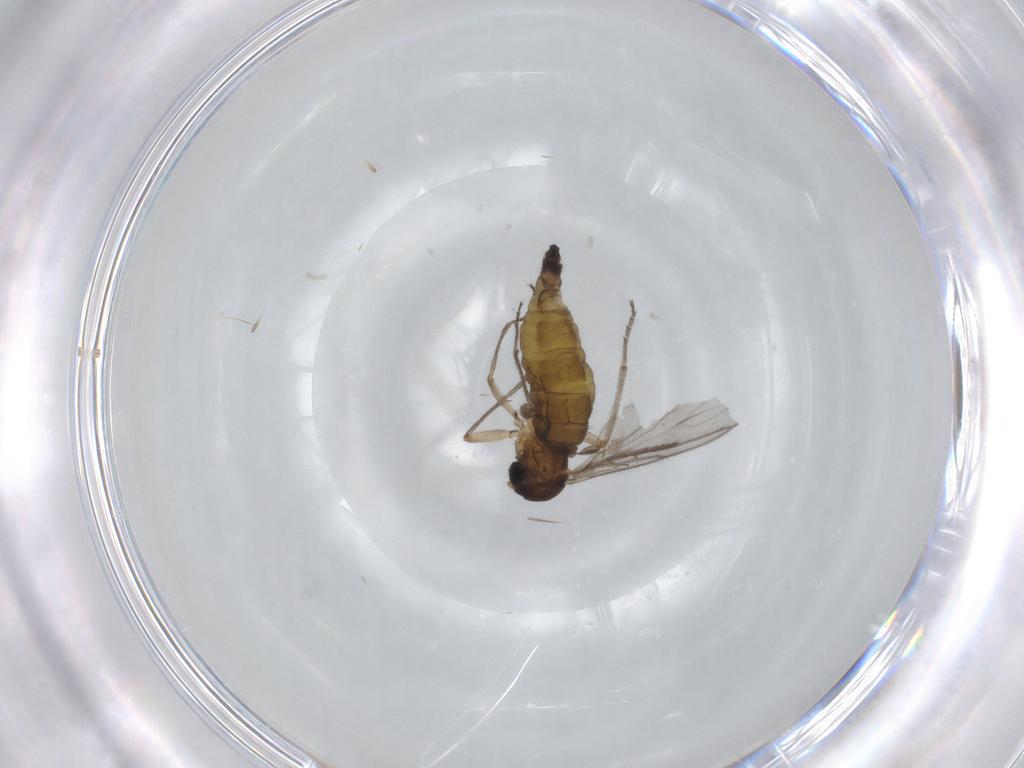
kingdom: Animalia
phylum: Arthropoda
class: Insecta
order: Diptera
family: Sciaridae
